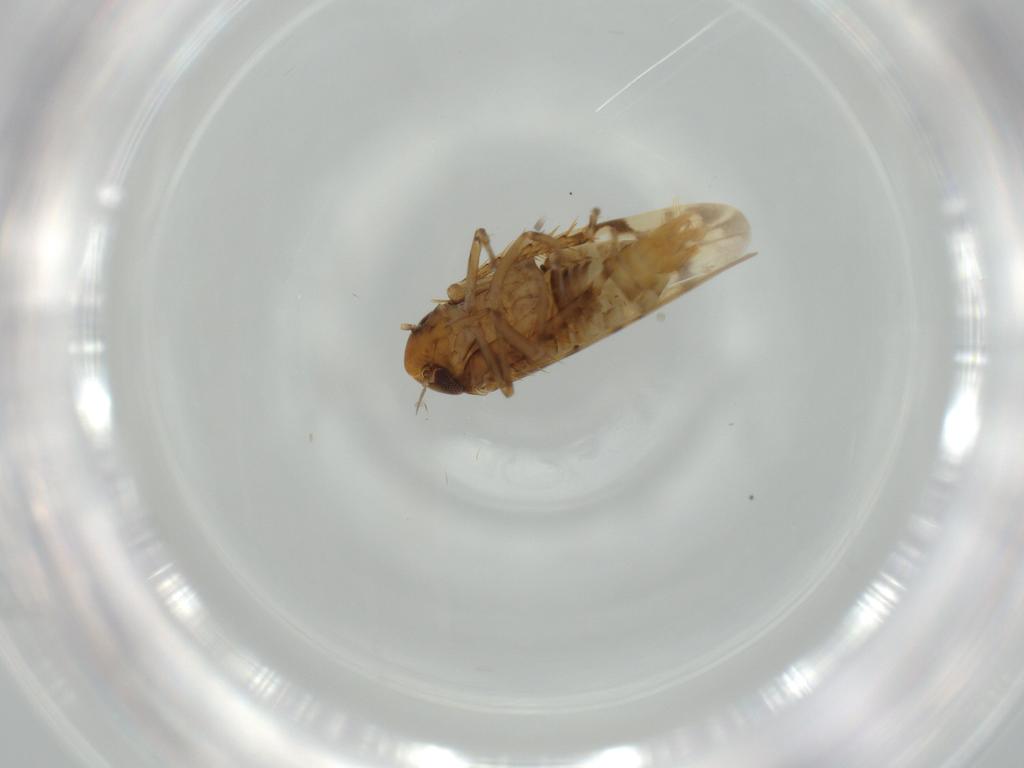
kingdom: Animalia
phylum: Arthropoda
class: Insecta
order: Hemiptera
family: Cicadellidae
